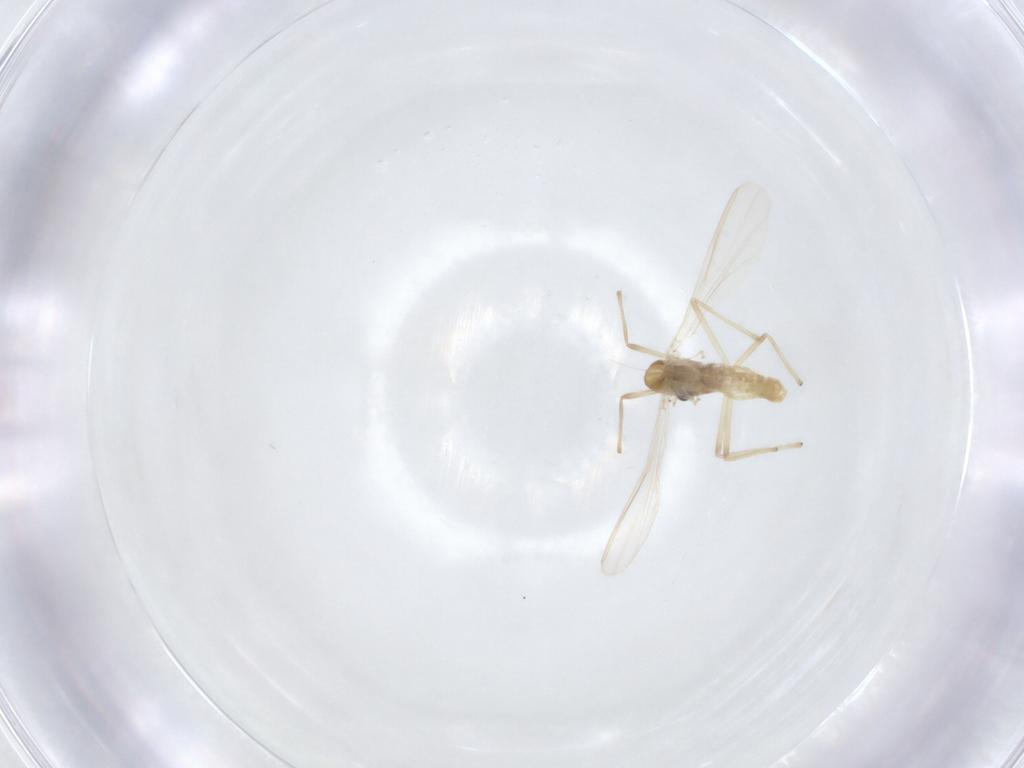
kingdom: Animalia
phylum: Arthropoda
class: Insecta
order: Diptera
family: Chironomidae
